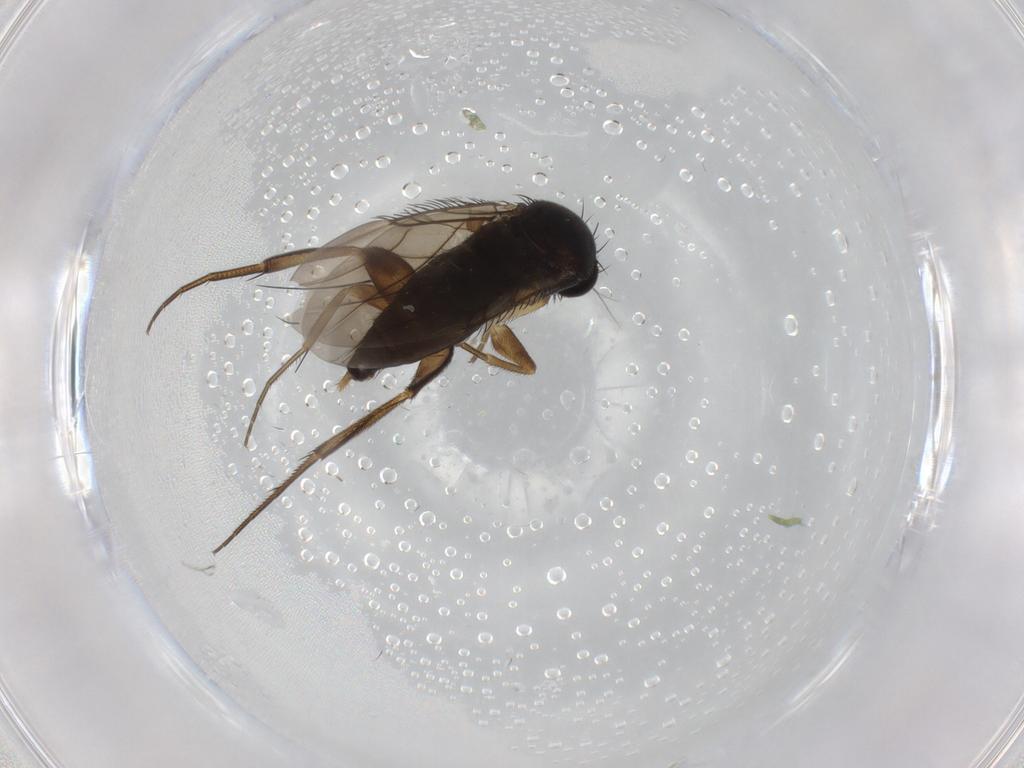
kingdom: Animalia
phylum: Arthropoda
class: Insecta
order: Diptera
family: Phoridae
